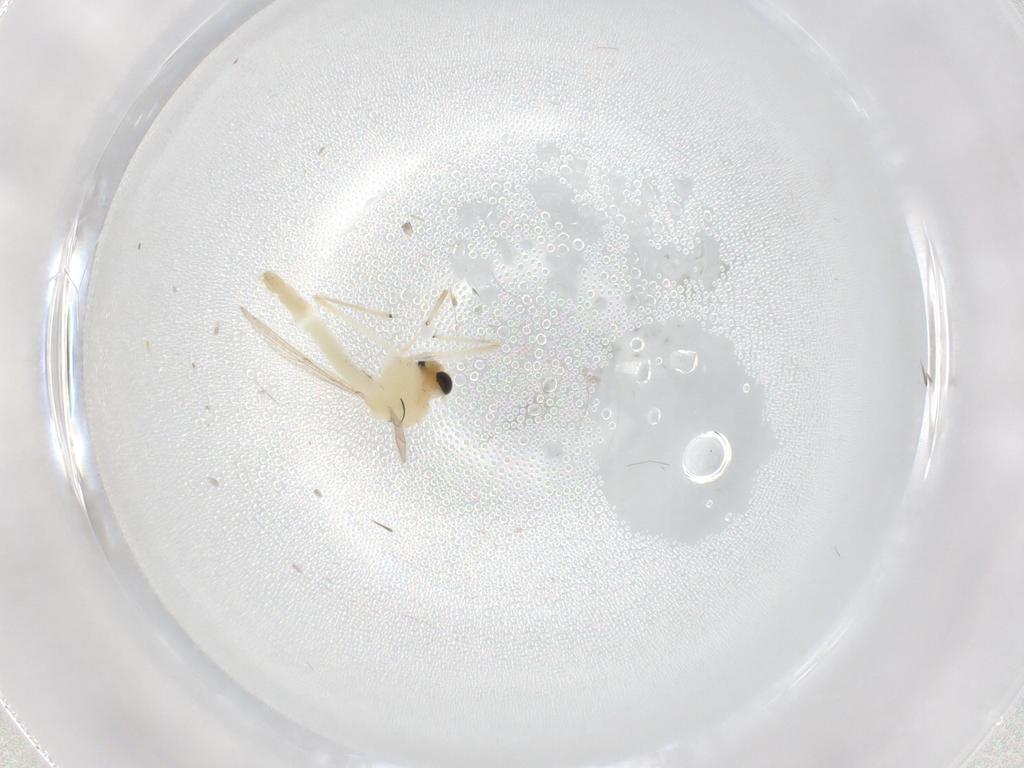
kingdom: Animalia
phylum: Arthropoda
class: Insecta
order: Diptera
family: Chironomidae
